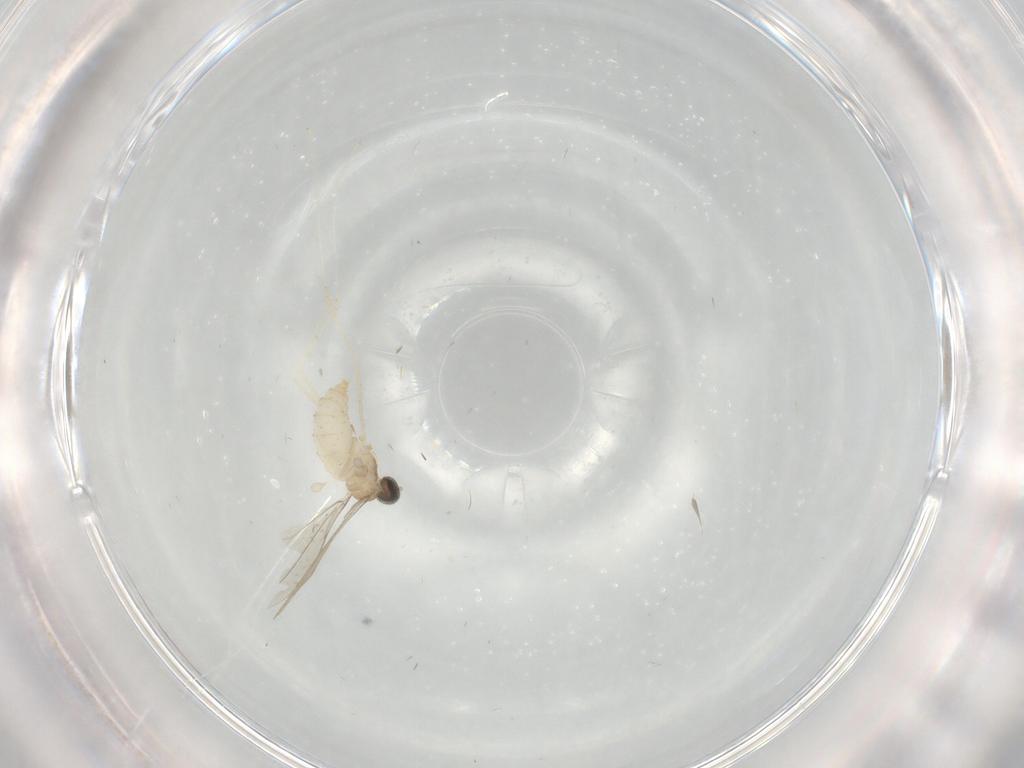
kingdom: Animalia
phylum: Arthropoda
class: Insecta
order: Diptera
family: Cecidomyiidae
